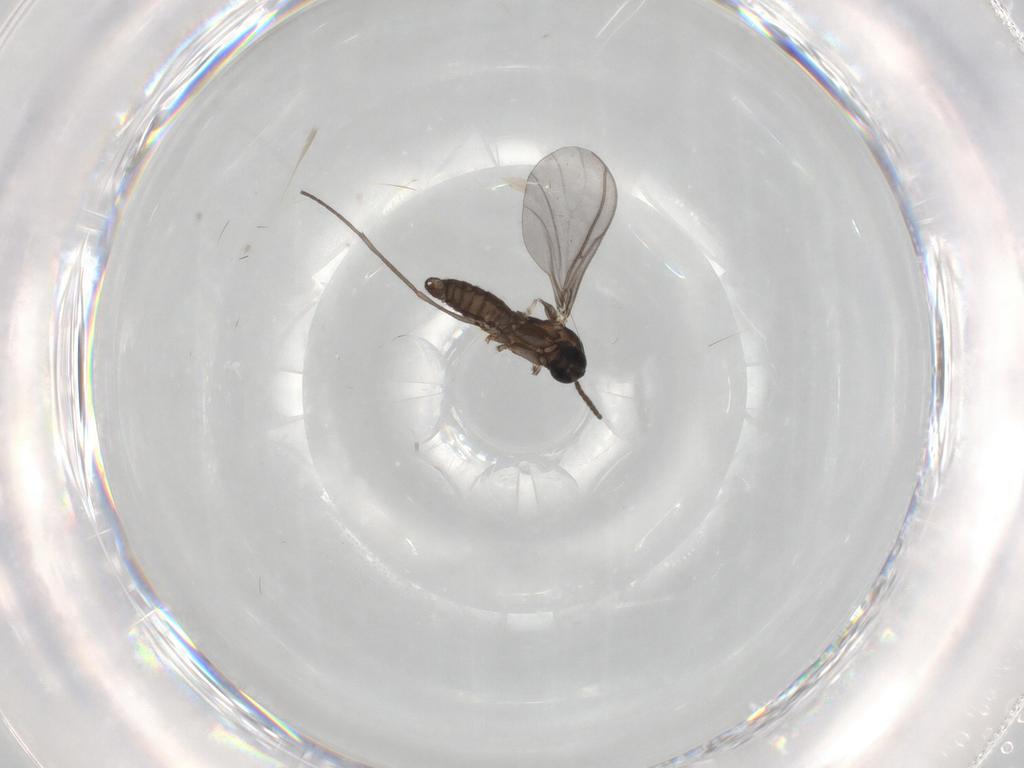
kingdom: Animalia
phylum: Arthropoda
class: Insecta
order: Diptera
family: Sciaridae
